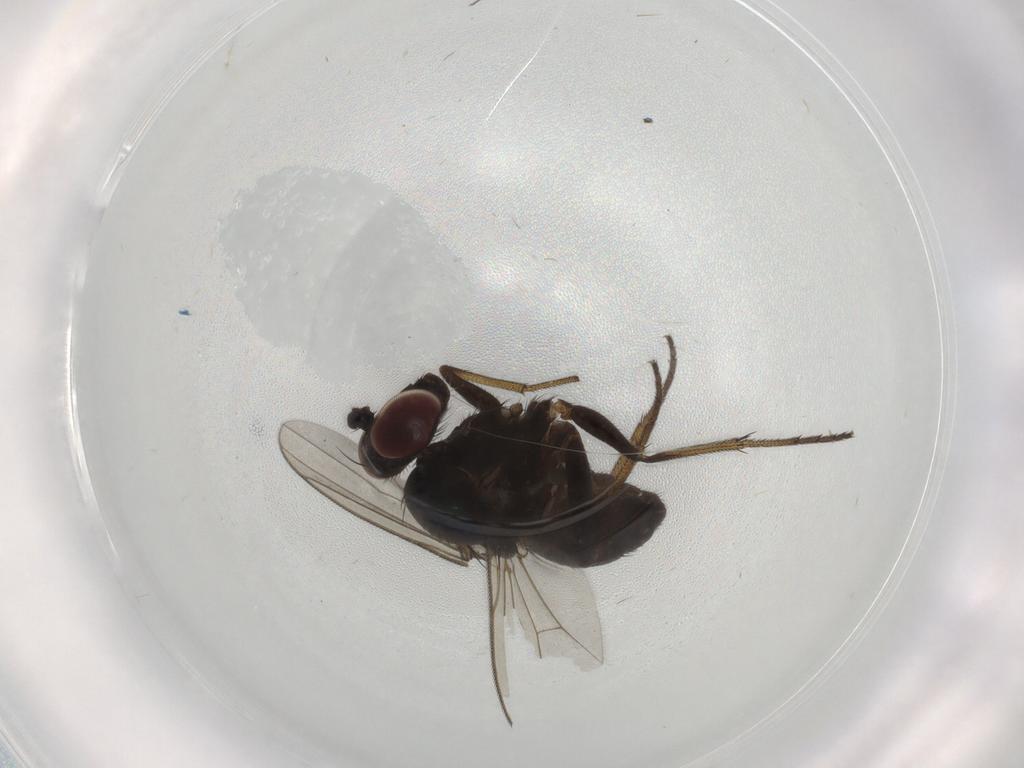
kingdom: Animalia
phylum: Arthropoda
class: Insecta
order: Diptera
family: Dolichopodidae
